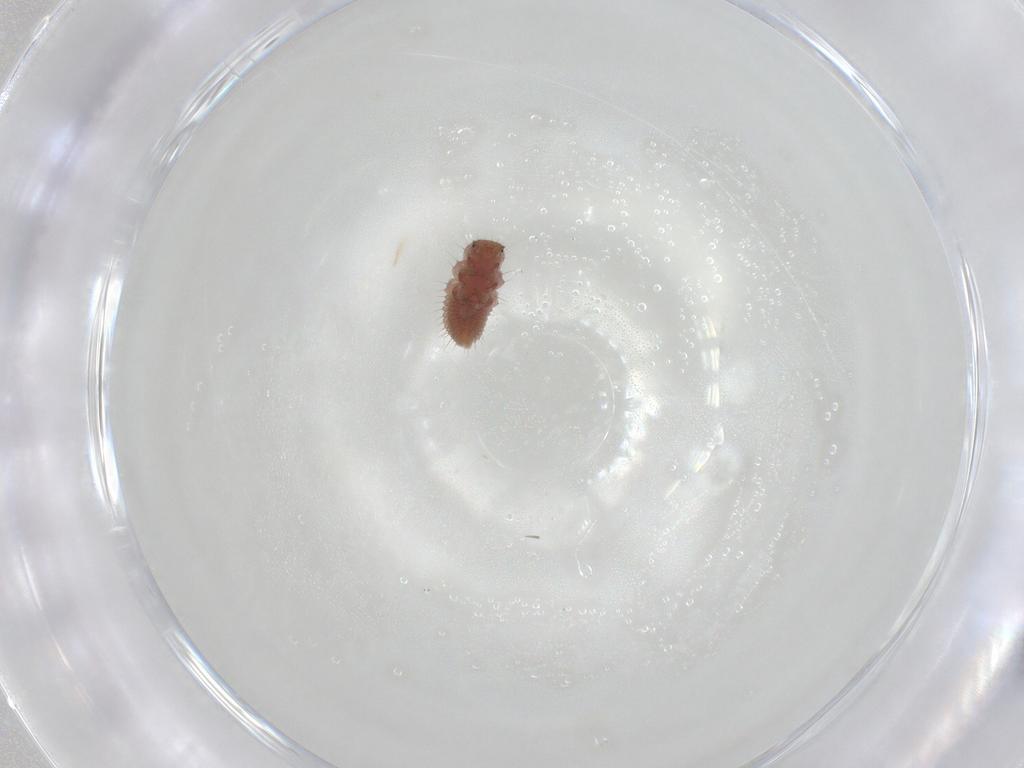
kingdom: Animalia
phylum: Arthropoda
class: Insecta
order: Coleoptera
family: Coccinellidae
